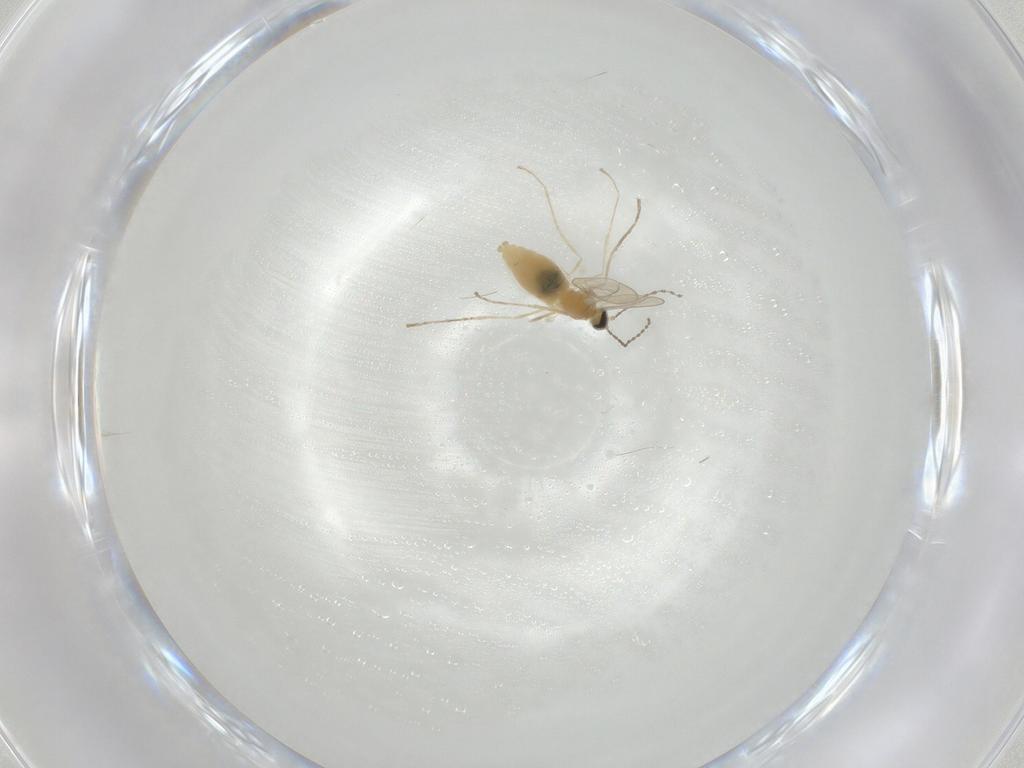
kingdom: Animalia
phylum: Arthropoda
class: Insecta
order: Diptera
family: Cecidomyiidae
